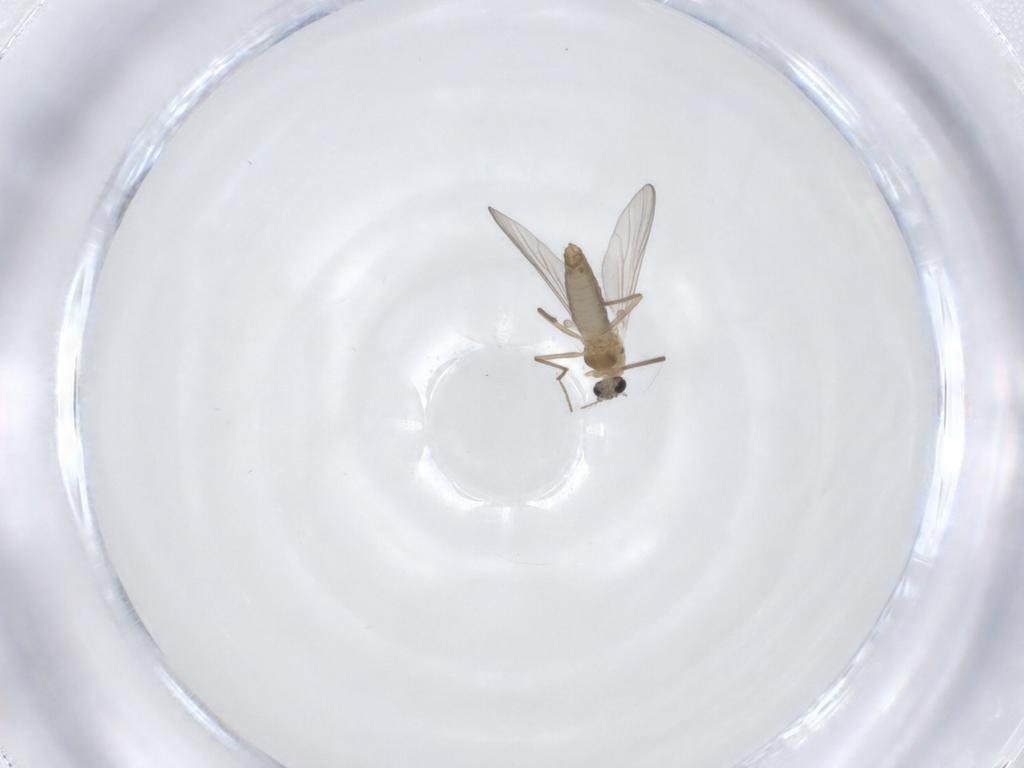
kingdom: Animalia
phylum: Arthropoda
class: Insecta
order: Diptera
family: Chironomidae
